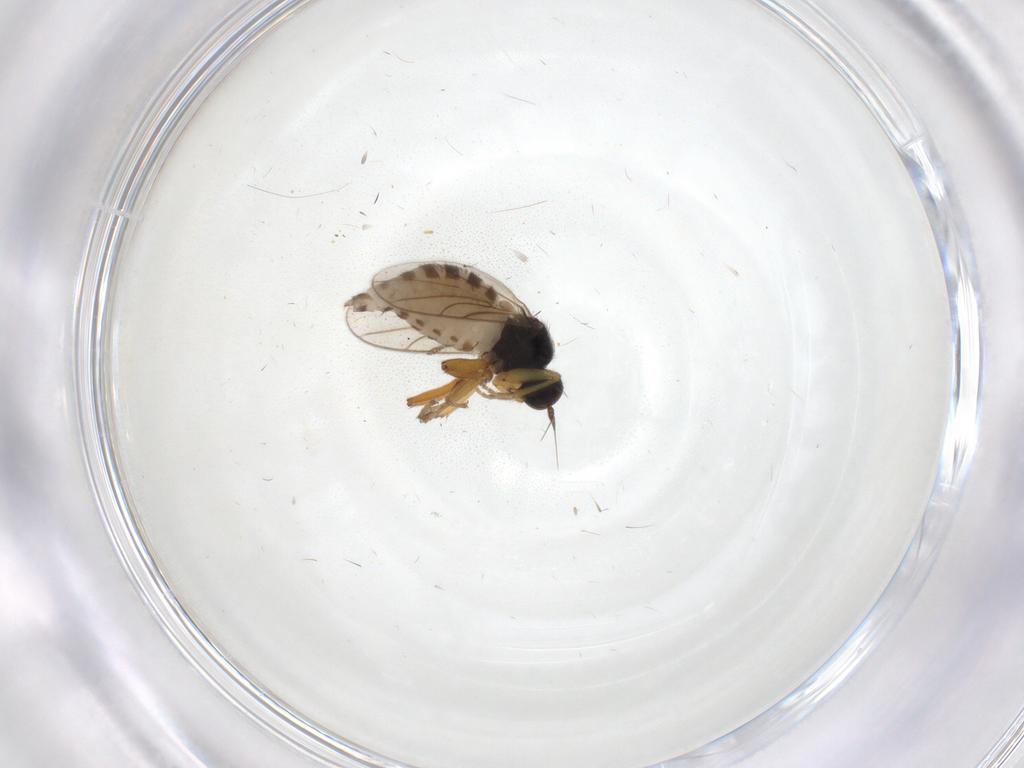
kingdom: Animalia
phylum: Arthropoda
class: Insecta
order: Diptera
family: Hybotidae
